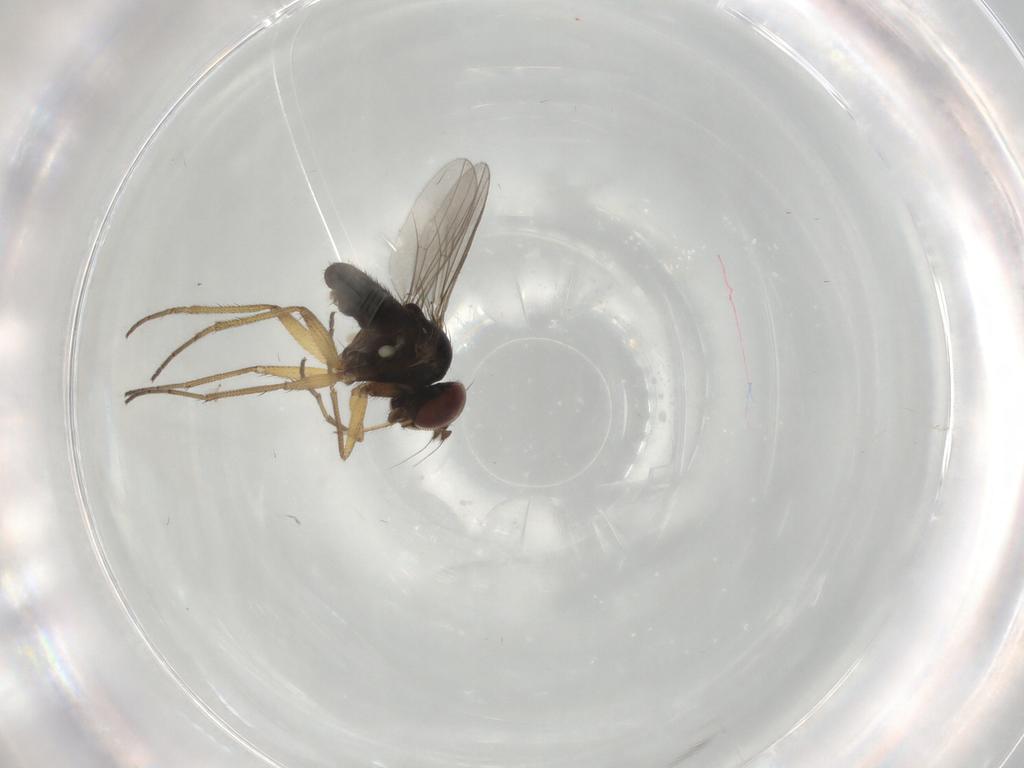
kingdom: Animalia
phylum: Arthropoda
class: Insecta
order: Diptera
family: Dolichopodidae
